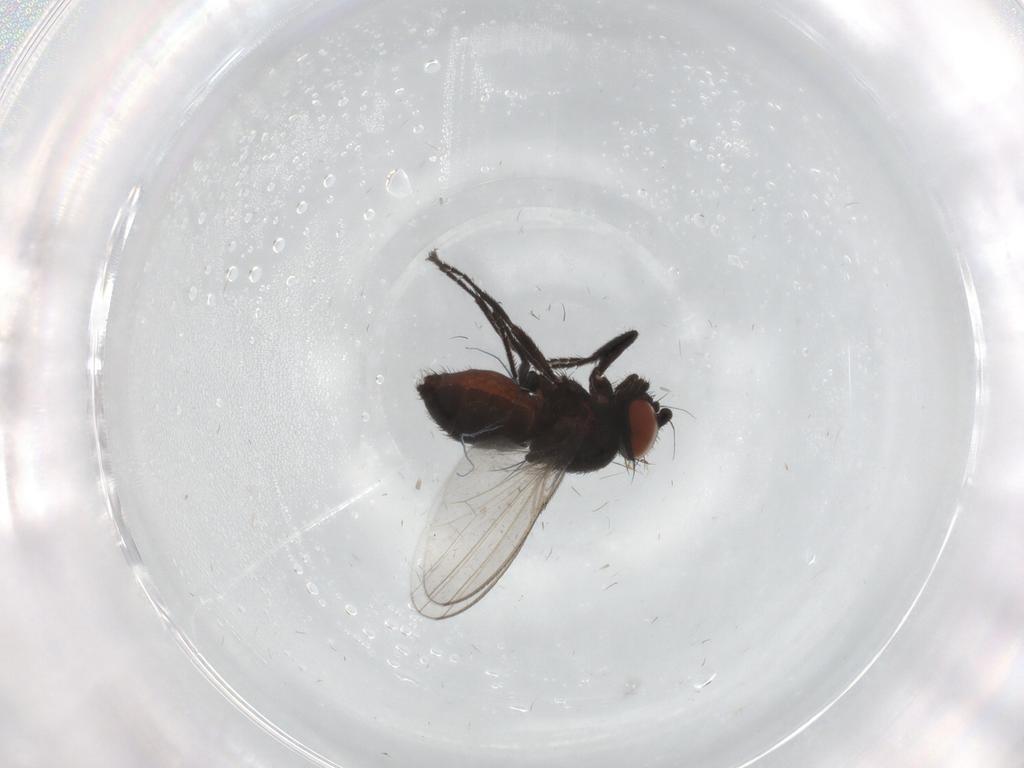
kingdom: Animalia
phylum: Arthropoda
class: Insecta
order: Diptera
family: Milichiidae
